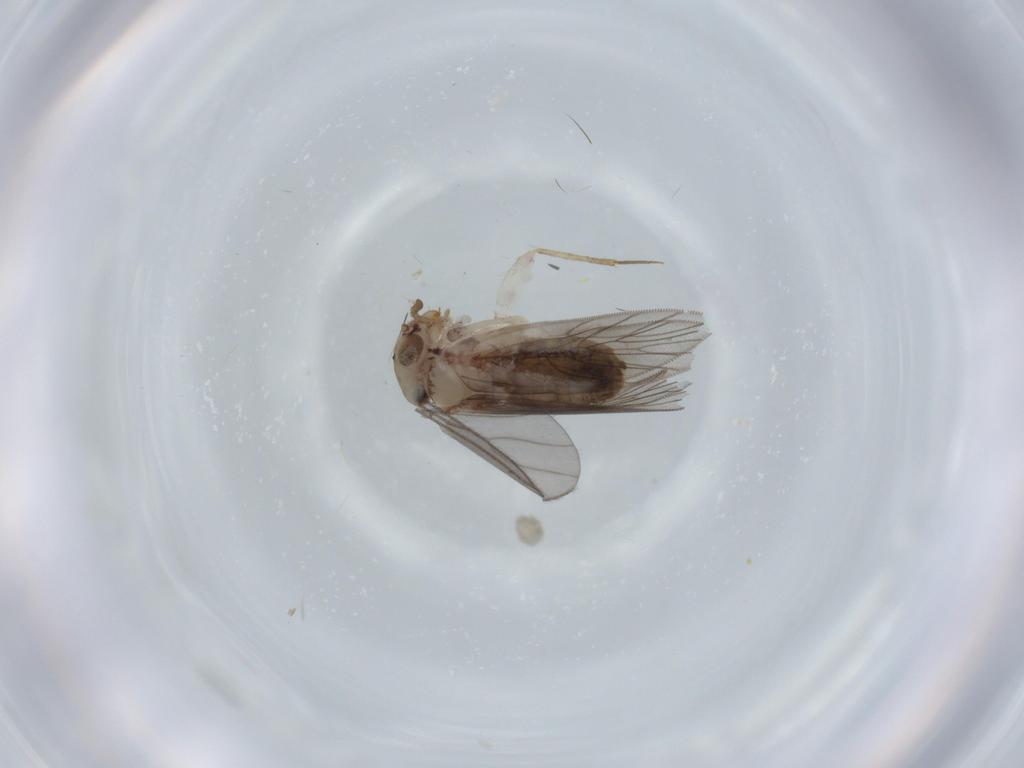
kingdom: Animalia
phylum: Arthropoda
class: Insecta
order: Psocodea
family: Lepidopsocidae
